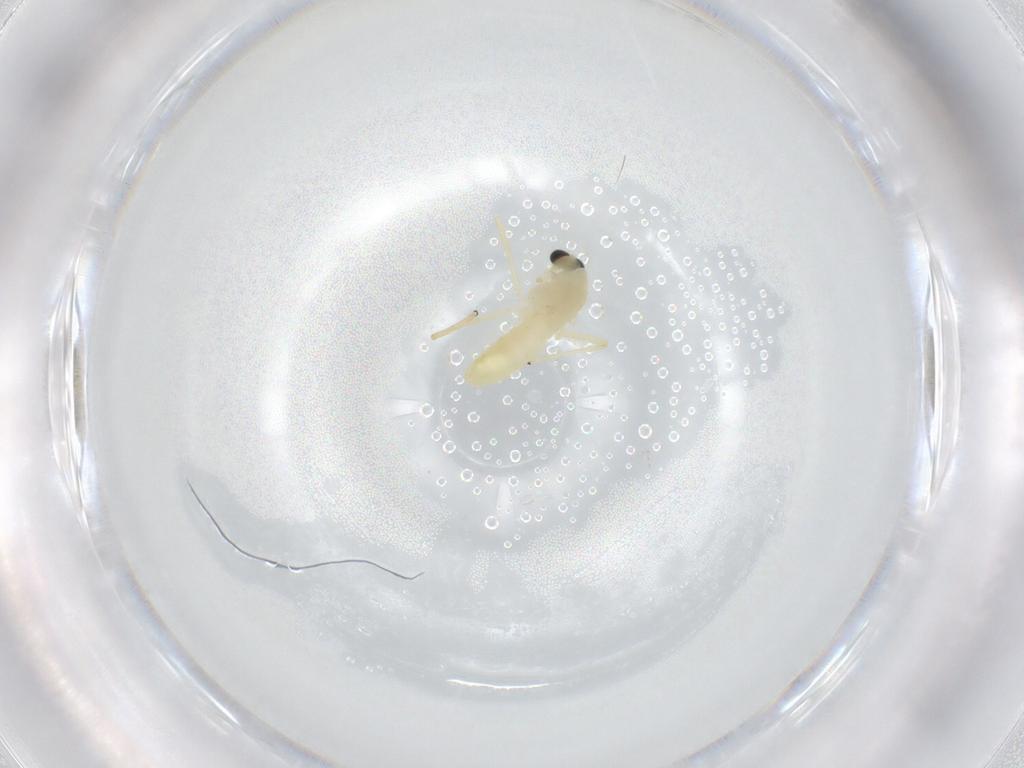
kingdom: Animalia
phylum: Arthropoda
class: Insecta
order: Diptera
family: Chironomidae
